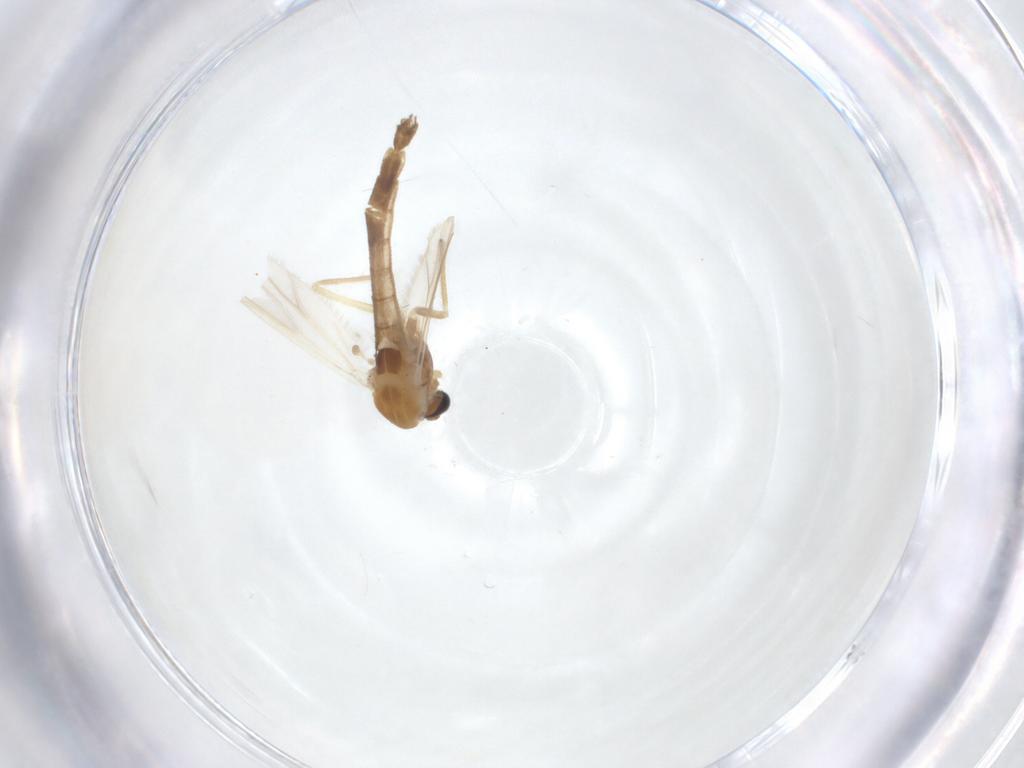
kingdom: Animalia
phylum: Arthropoda
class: Insecta
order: Diptera
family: Chironomidae
